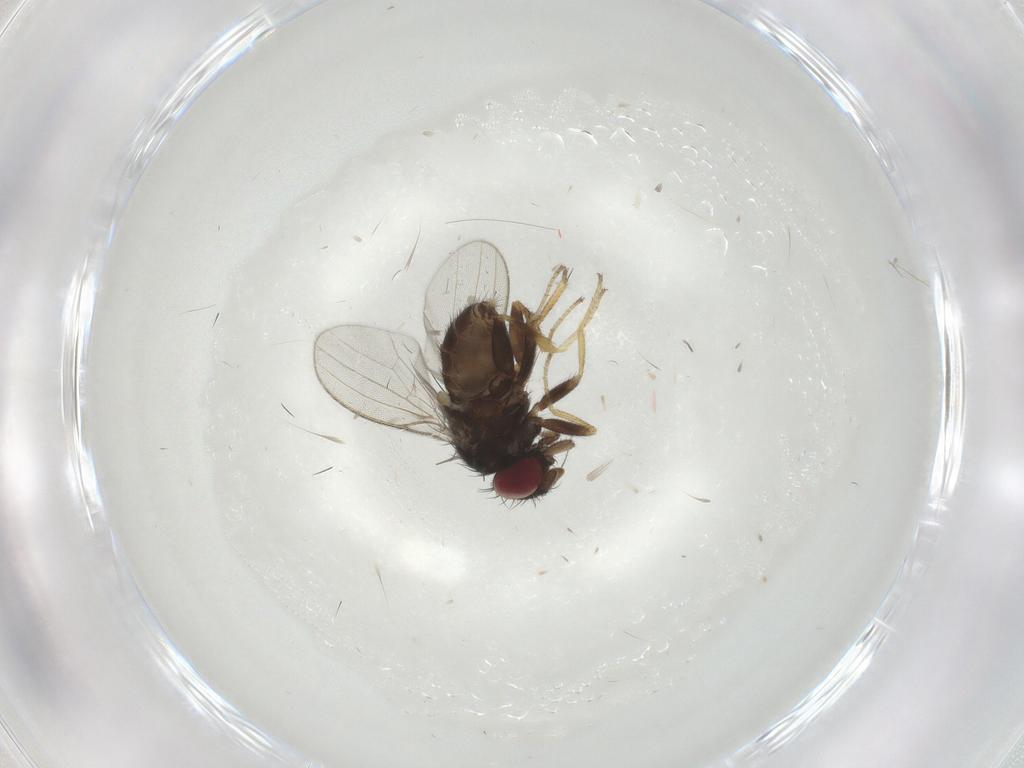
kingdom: Animalia
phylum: Arthropoda
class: Insecta
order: Diptera
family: Milichiidae
